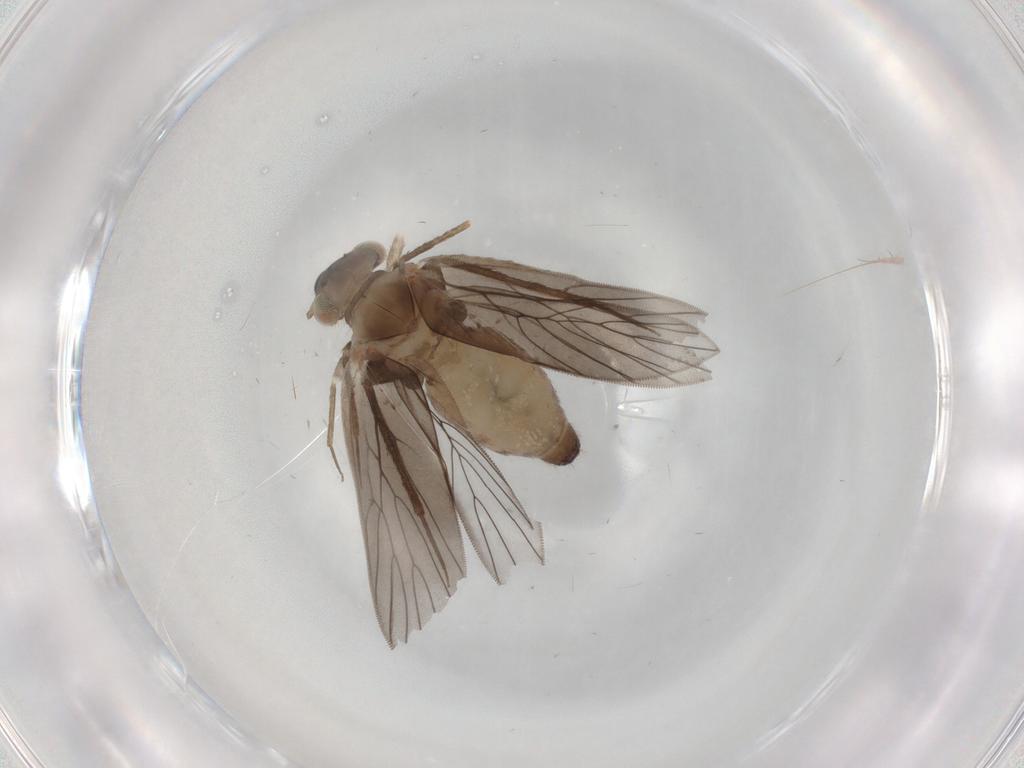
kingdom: Animalia
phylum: Arthropoda
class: Insecta
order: Psocodea
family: Lepidopsocidae
